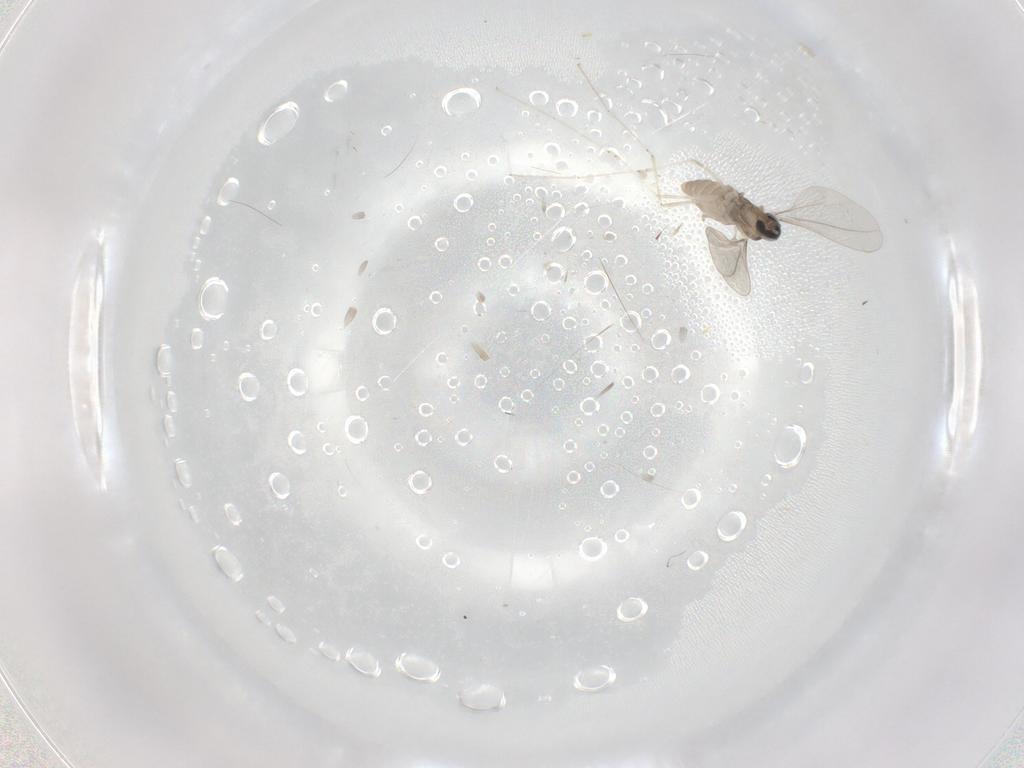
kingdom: Animalia
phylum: Arthropoda
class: Insecta
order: Diptera
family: Cecidomyiidae
